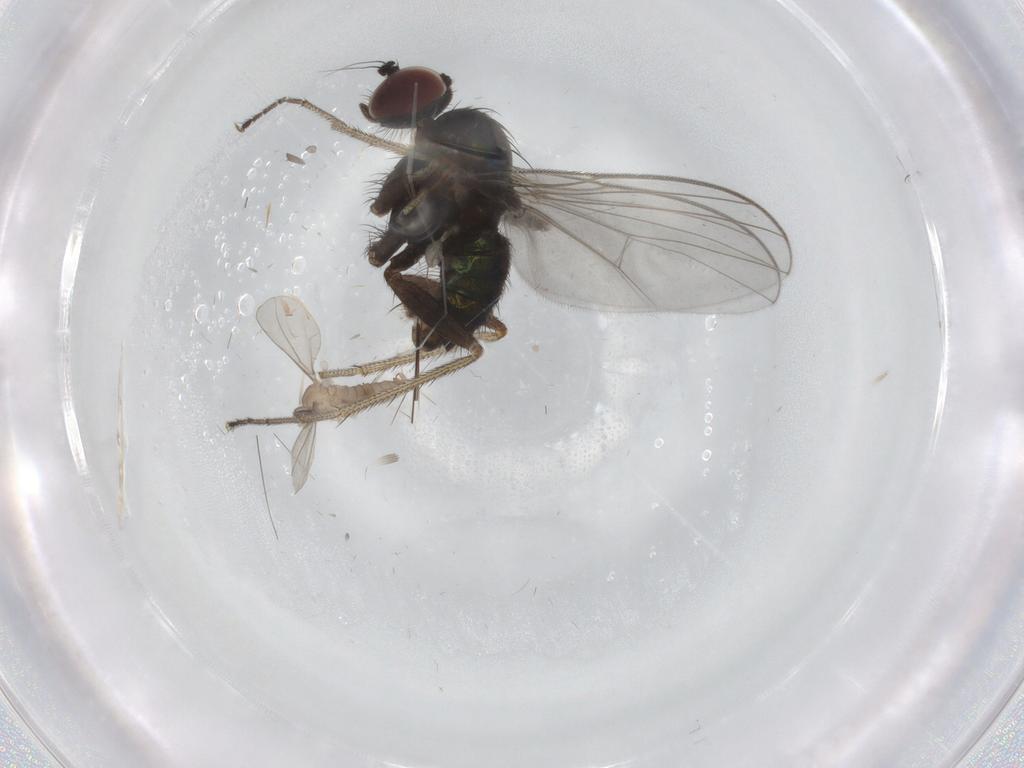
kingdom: Animalia
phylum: Arthropoda
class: Insecta
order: Diptera
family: Dolichopodidae
